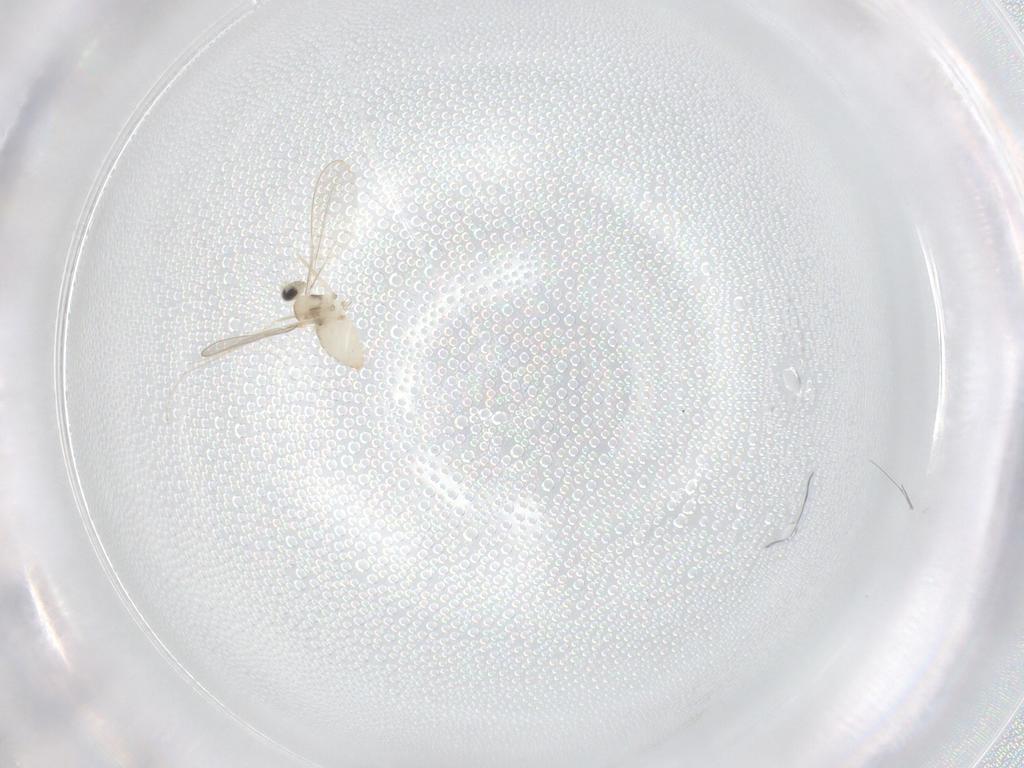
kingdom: Animalia
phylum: Arthropoda
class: Insecta
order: Diptera
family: Cecidomyiidae
